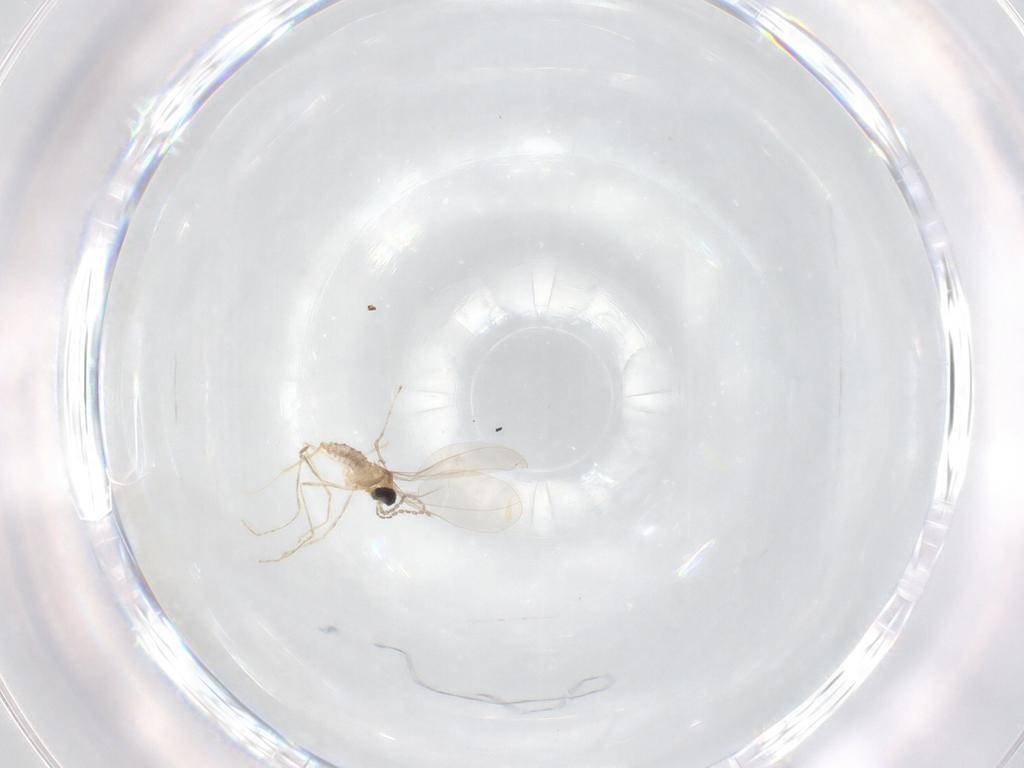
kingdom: Animalia
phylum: Arthropoda
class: Insecta
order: Diptera
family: Cecidomyiidae
